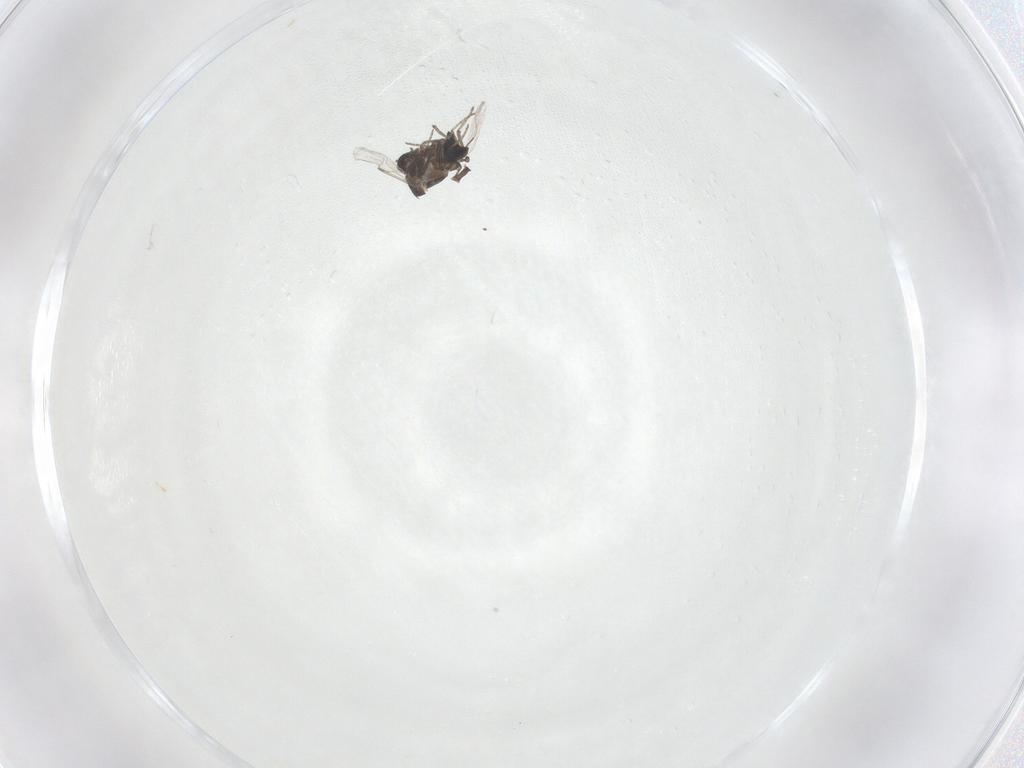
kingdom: Animalia
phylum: Arthropoda
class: Insecta
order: Diptera
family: Ceratopogonidae
